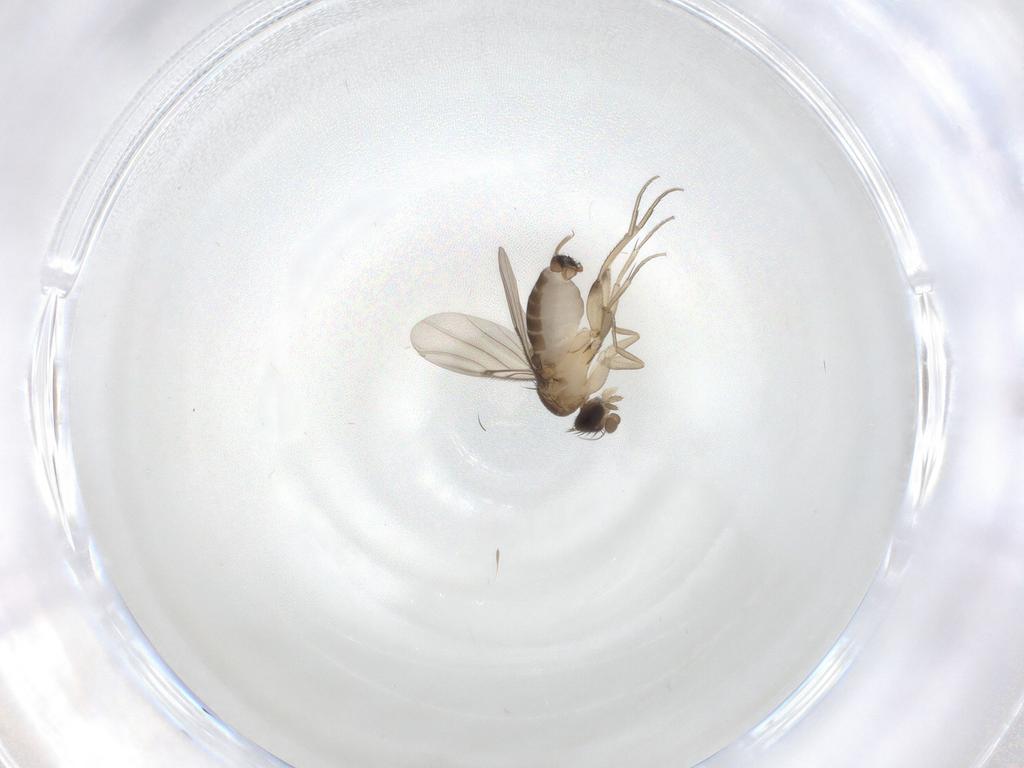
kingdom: Animalia
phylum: Arthropoda
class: Insecta
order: Diptera
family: Phoridae
